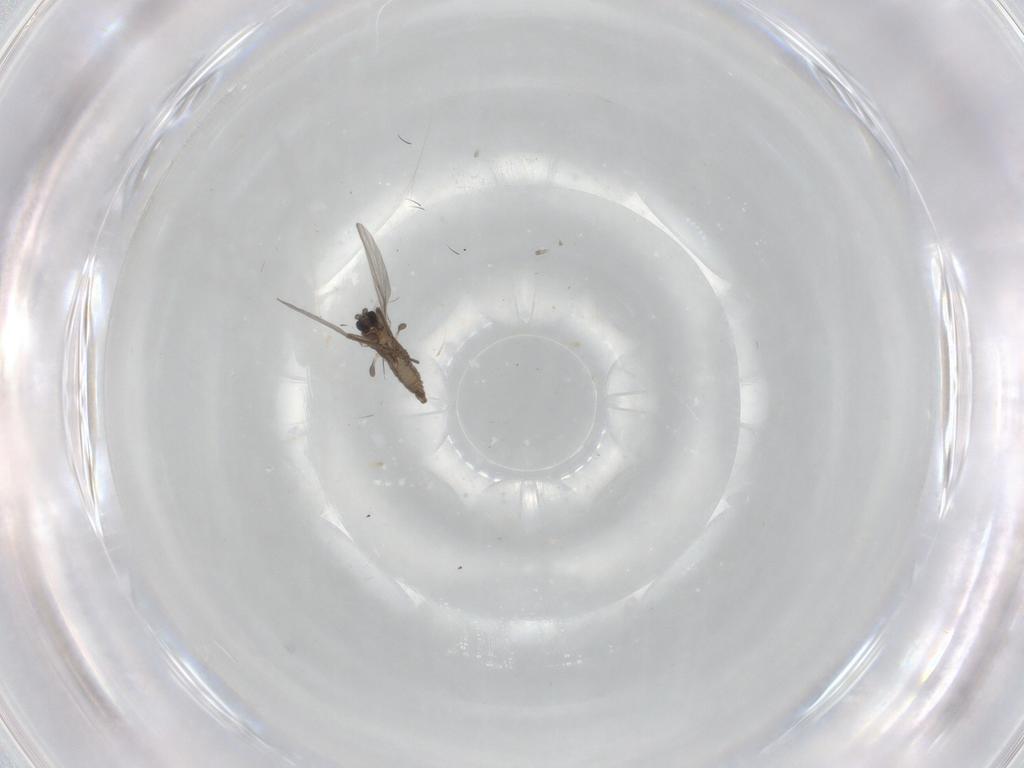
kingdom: Animalia
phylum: Arthropoda
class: Insecta
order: Diptera
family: Sciaridae
